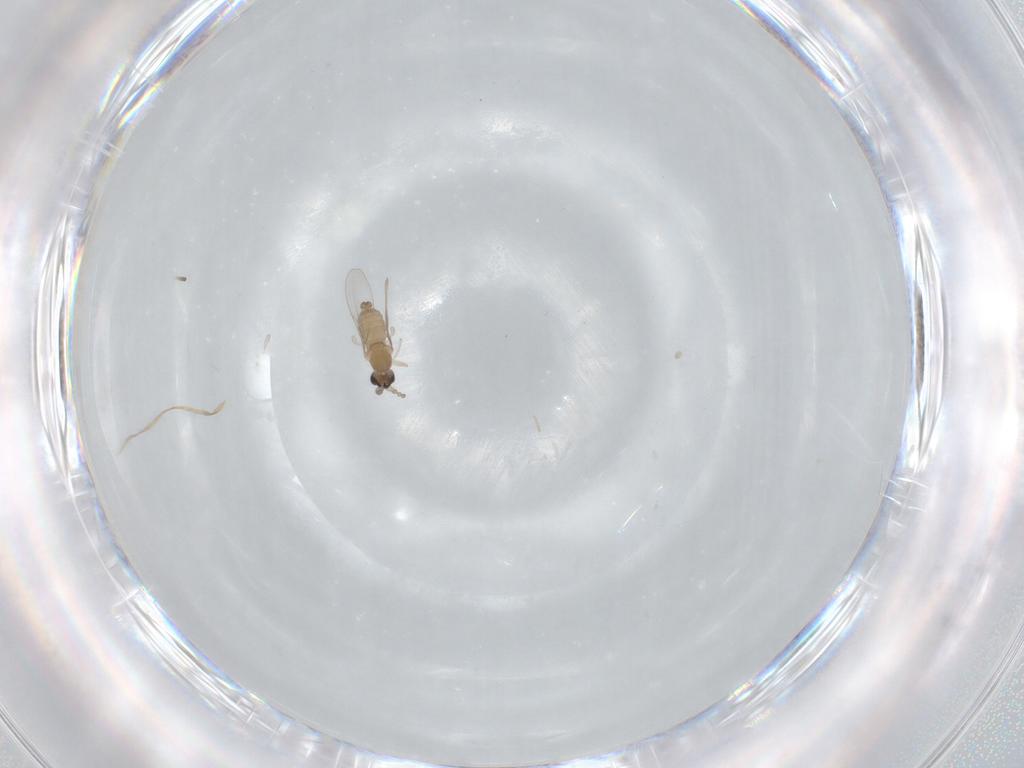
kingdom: Animalia
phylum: Arthropoda
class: Insecta
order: Diptera
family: Cecidomyiidae
